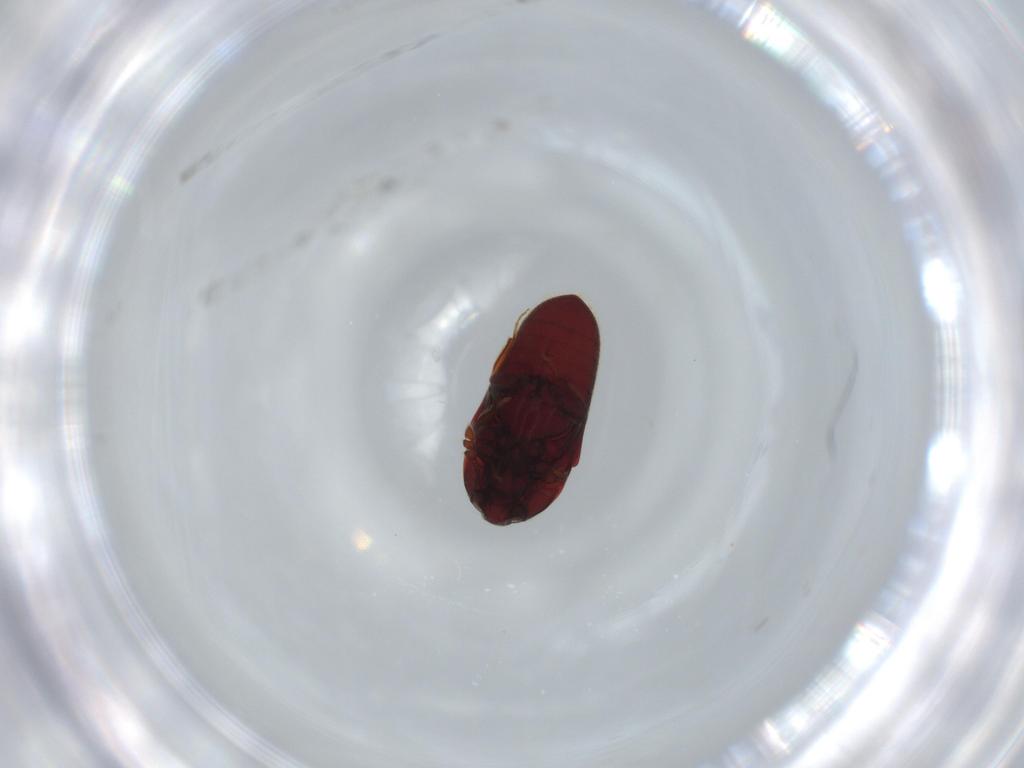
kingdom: Animalia
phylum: Arthropoda
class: Insecta
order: Coleoptera
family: Throscidae
